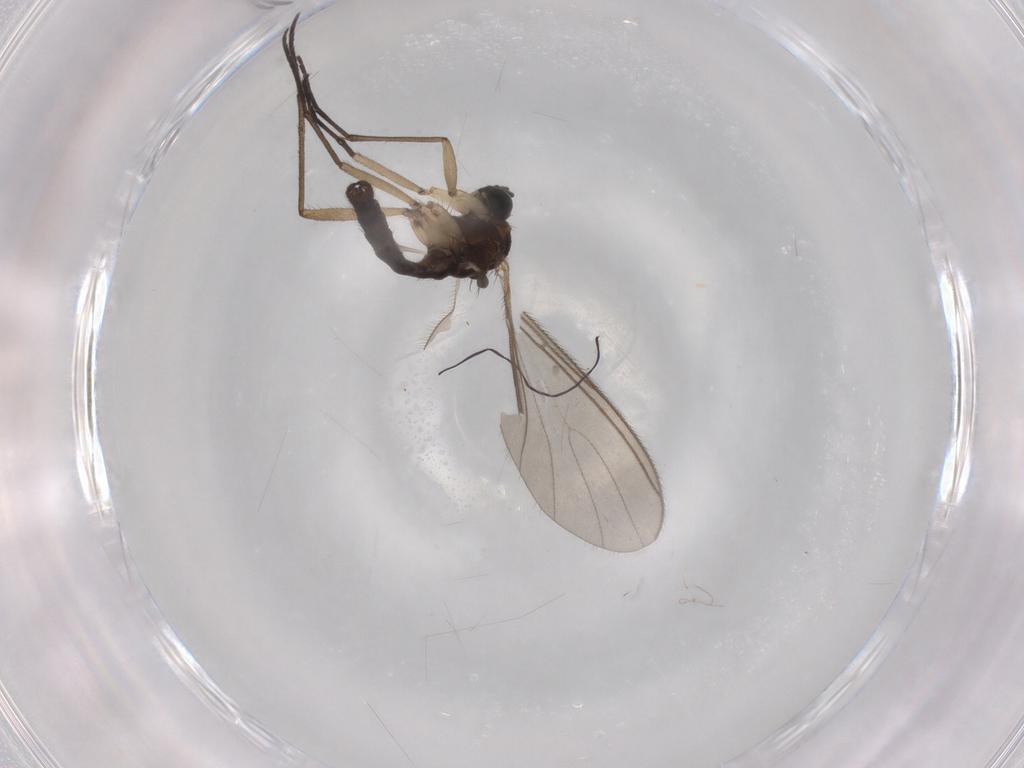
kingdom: Animalia
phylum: Arthropoda
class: Insecta
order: Diptera
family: Sciaridae
